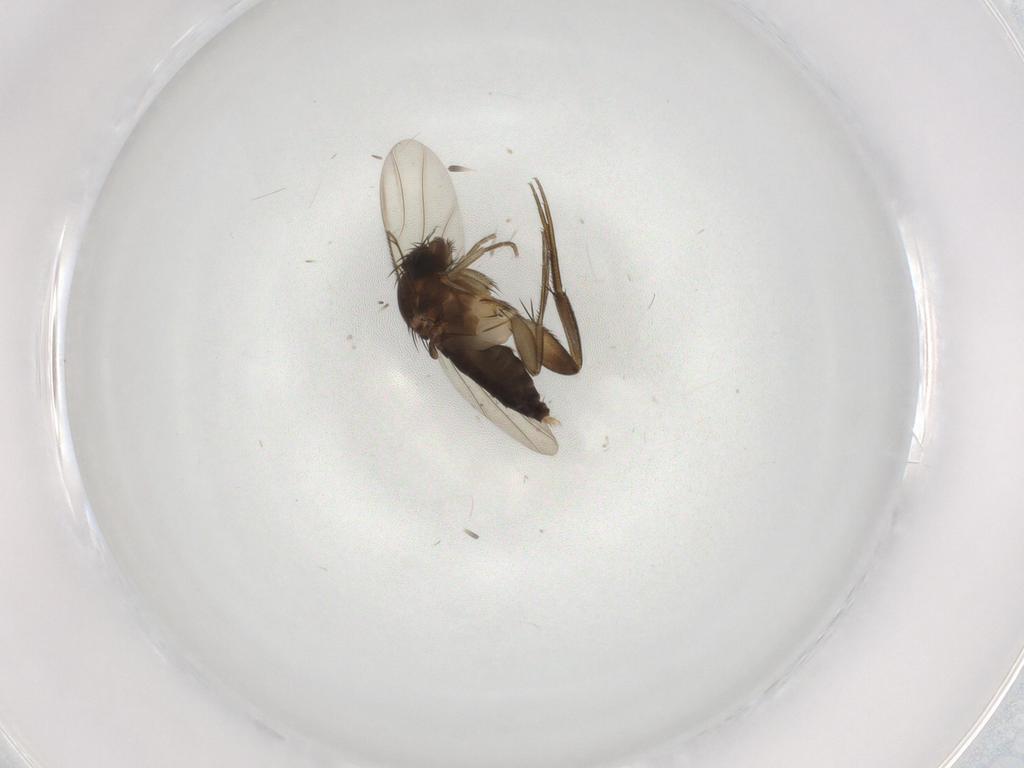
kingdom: Animalia
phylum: Arthropoda
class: Insecta
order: Diptera
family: Phoridae
